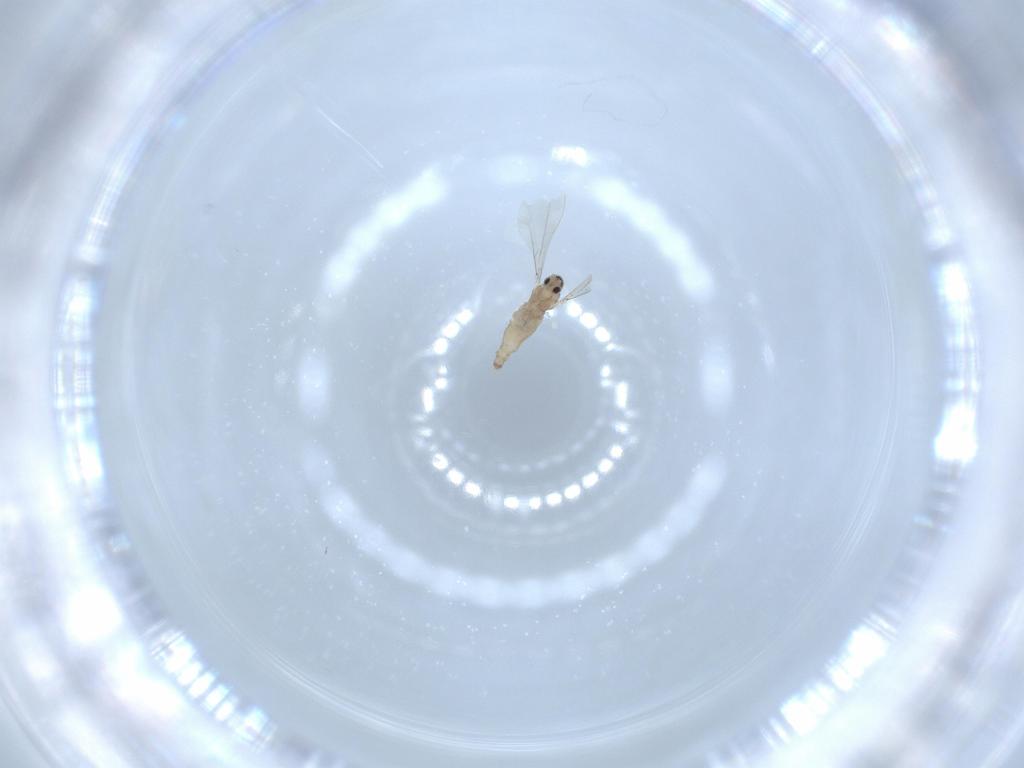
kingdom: Animalia
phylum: Arthropoda
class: Insecta
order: Diptera
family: Cecidomyiidae
